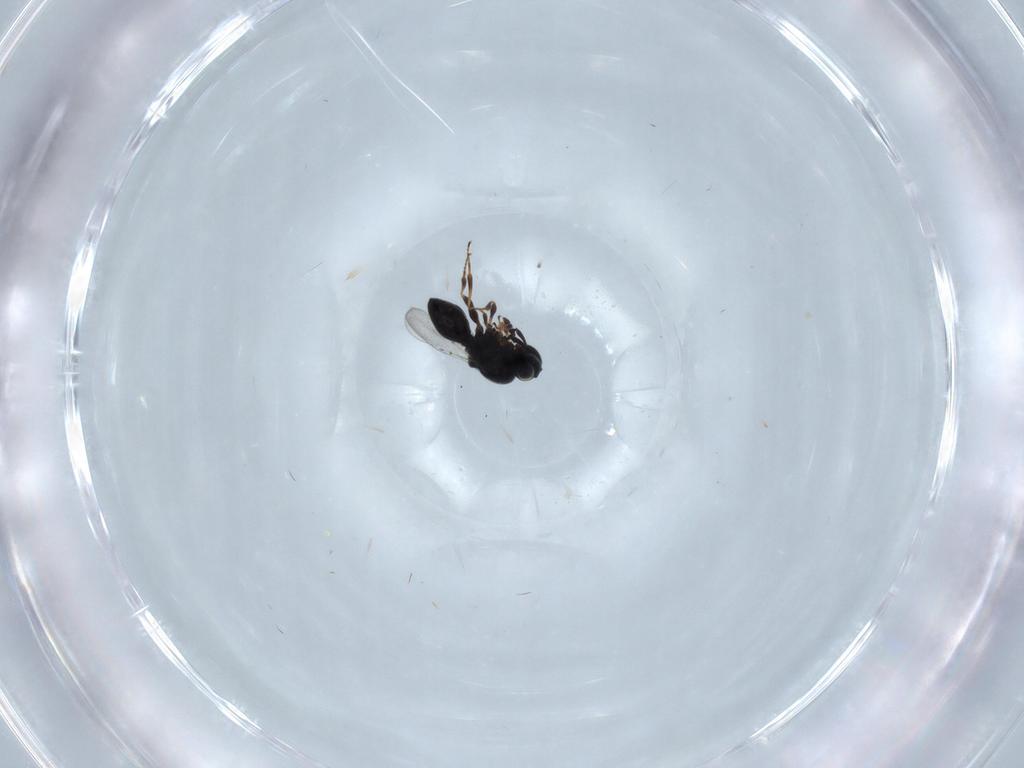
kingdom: Animalia
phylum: Arthropoda
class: Insecta
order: Hymenoptera
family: Platygastridae
